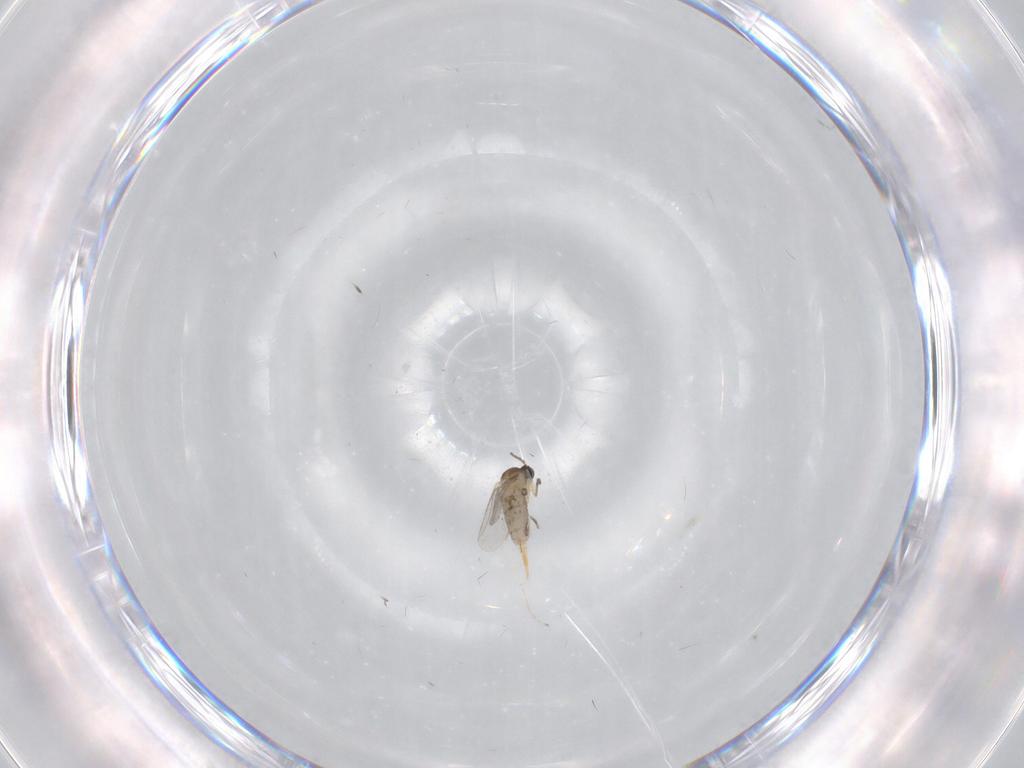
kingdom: Animalia
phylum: Arthropoda
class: Insecta
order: Diptera
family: Cecidomyiidae
